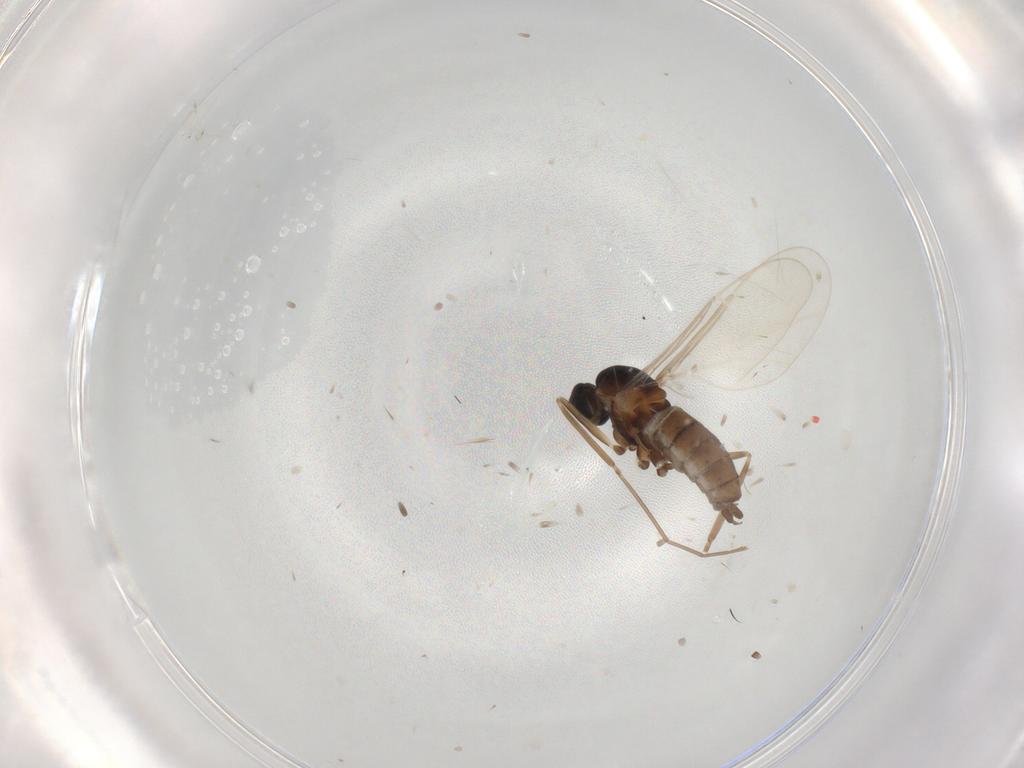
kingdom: Animalia
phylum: Arthropoda
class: Insecta
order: Diptera
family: Cecidomyiidae
